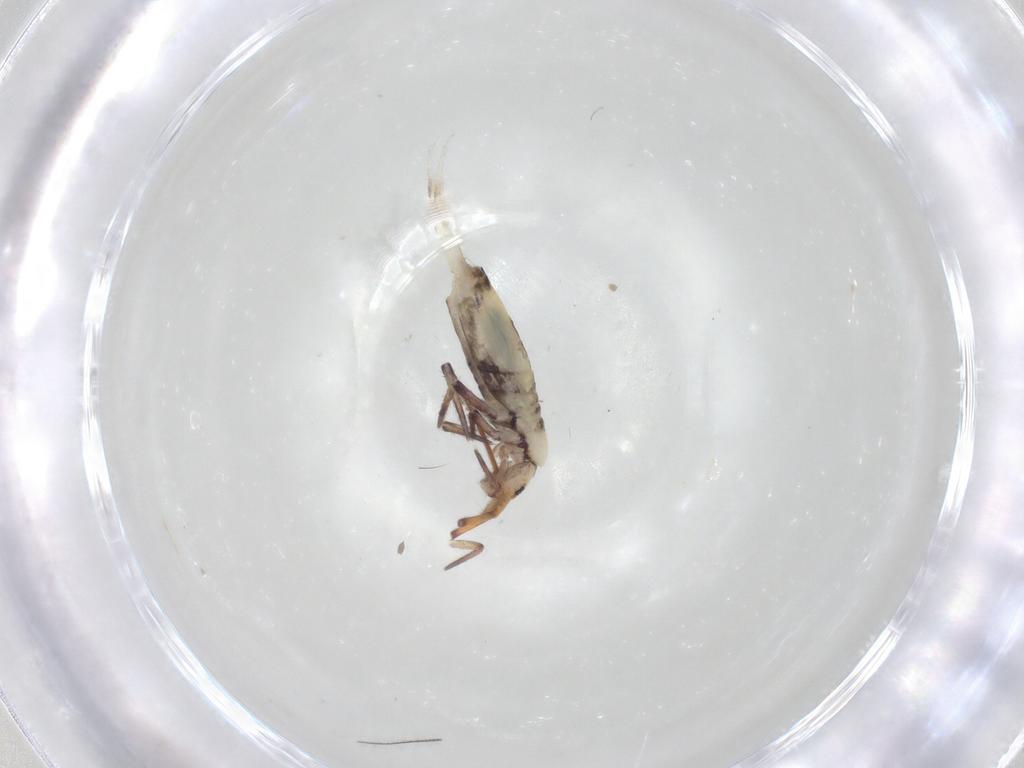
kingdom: Animalia
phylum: Arthropoda
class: Collembola
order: Entomobryomorpha
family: Entomobryidae
